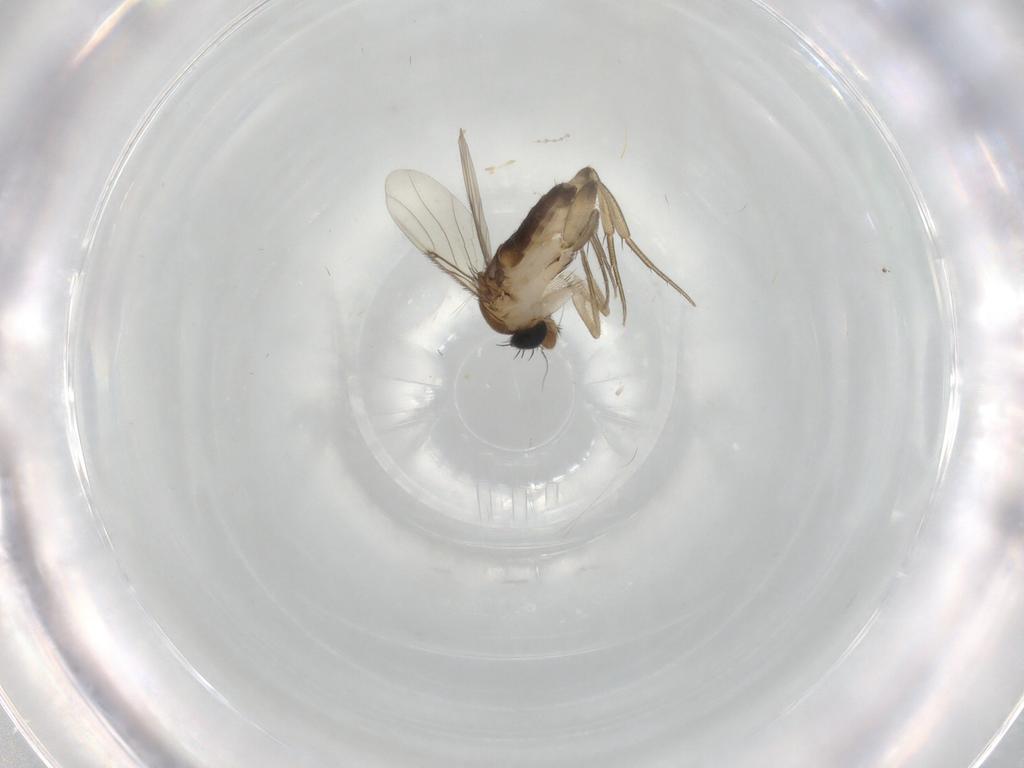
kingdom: Animalia
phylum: Arthropoda
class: Insecta
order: Diptera
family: Phoridae
